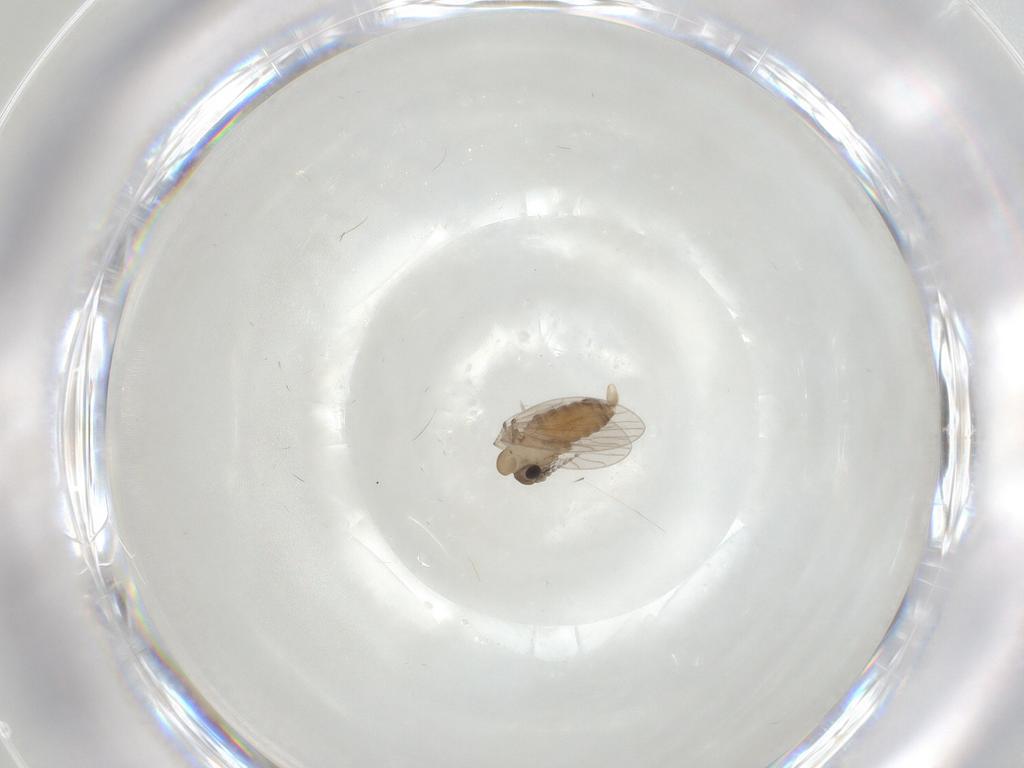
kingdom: Animalia
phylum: Arthropoda
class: Insecta
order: Diptera
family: Psychodidae
